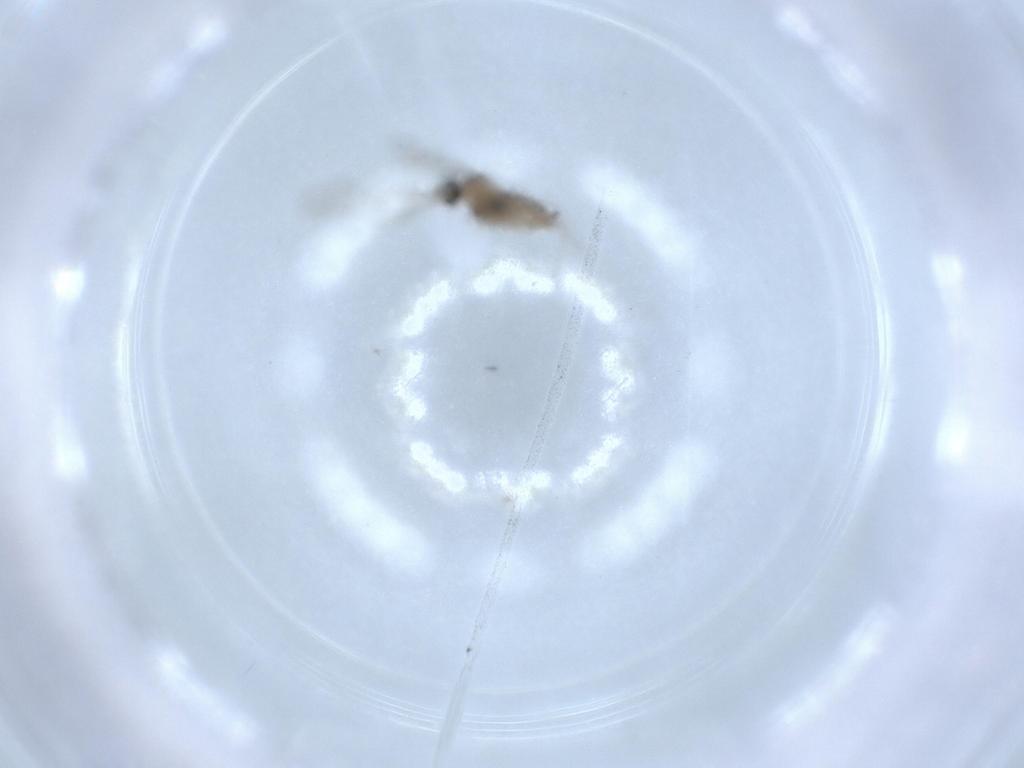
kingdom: Animalia
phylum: Arthropoda
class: Insecta
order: Diptera
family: Cecidomyiidae
